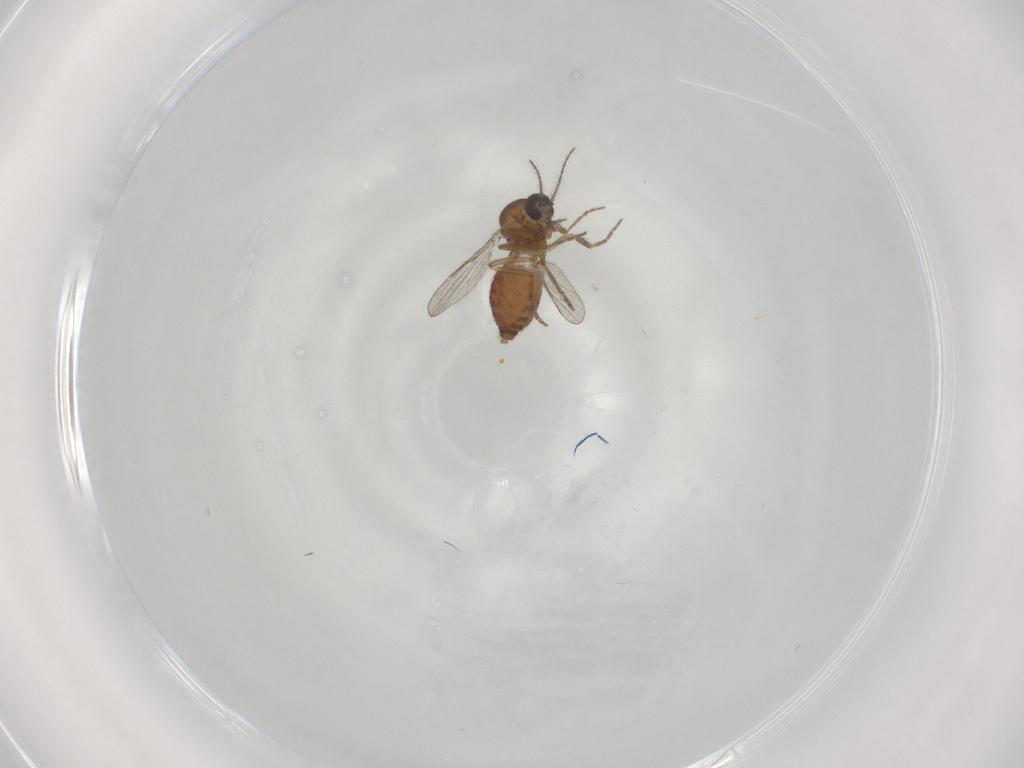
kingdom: Animalia
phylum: Arthropoda
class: Insecta
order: Diptera
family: Ceratopogonidae
